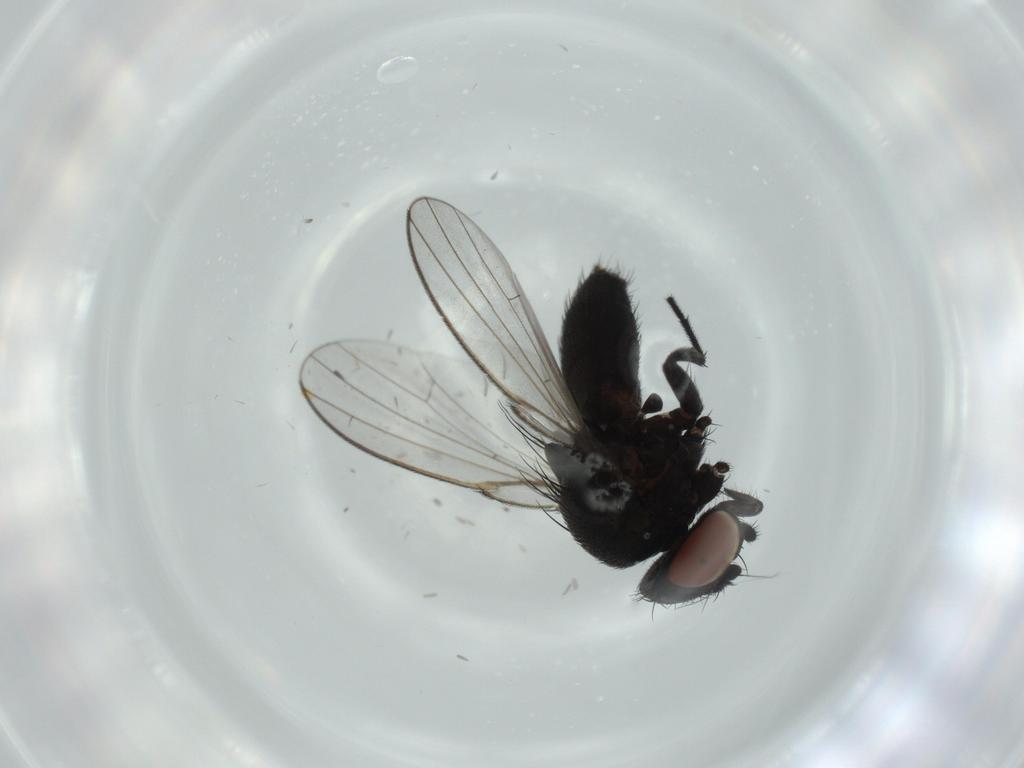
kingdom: Animalia
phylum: Arthropoda
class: Insecta
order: Diptera
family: Milichiidae
